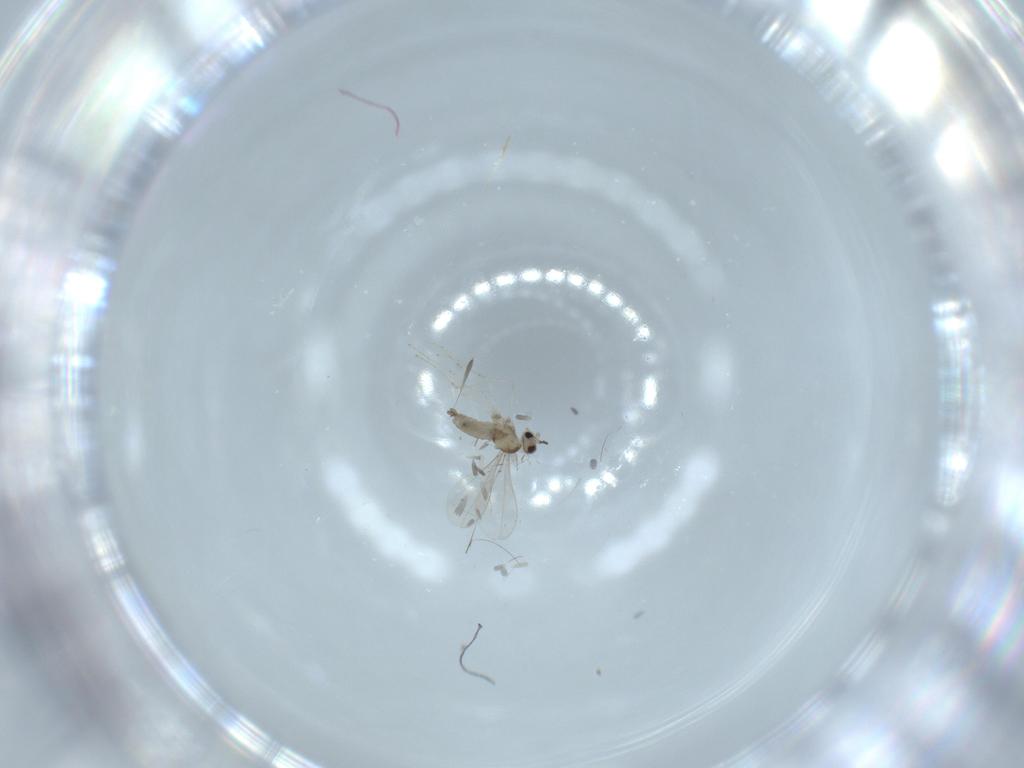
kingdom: Animalia
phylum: Arthropoda
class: Insecta
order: Diptera
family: Cecidomyiidae
